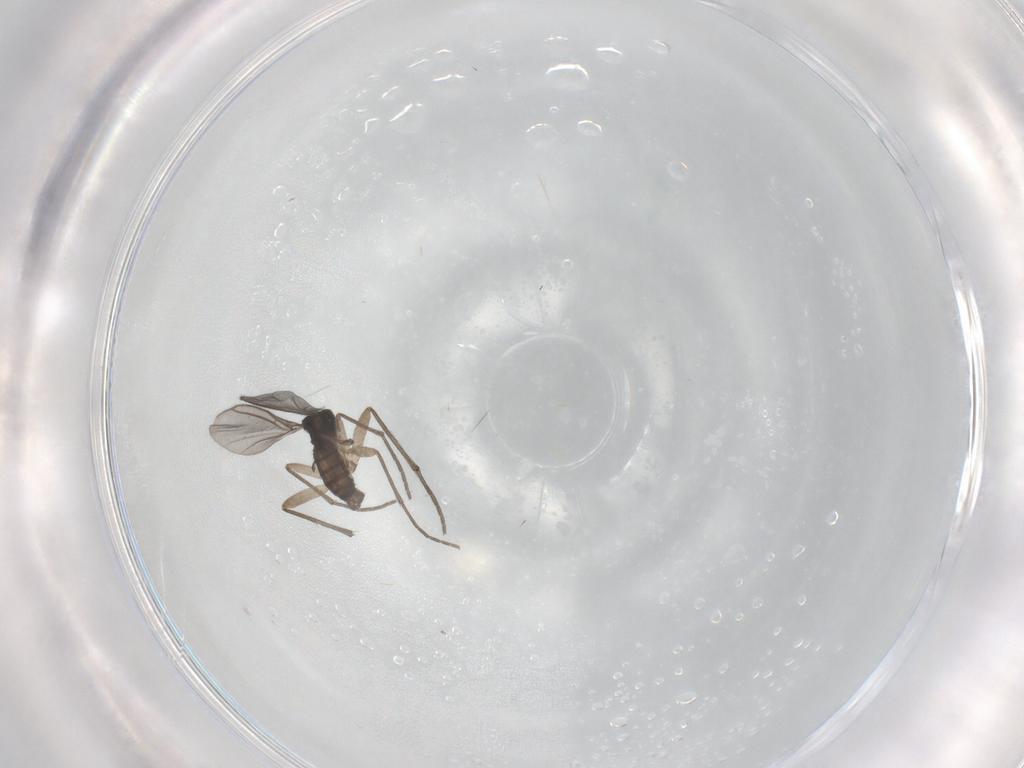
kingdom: Animalia
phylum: Arthropoda
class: Insecta
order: Diptera
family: Sciaridae
